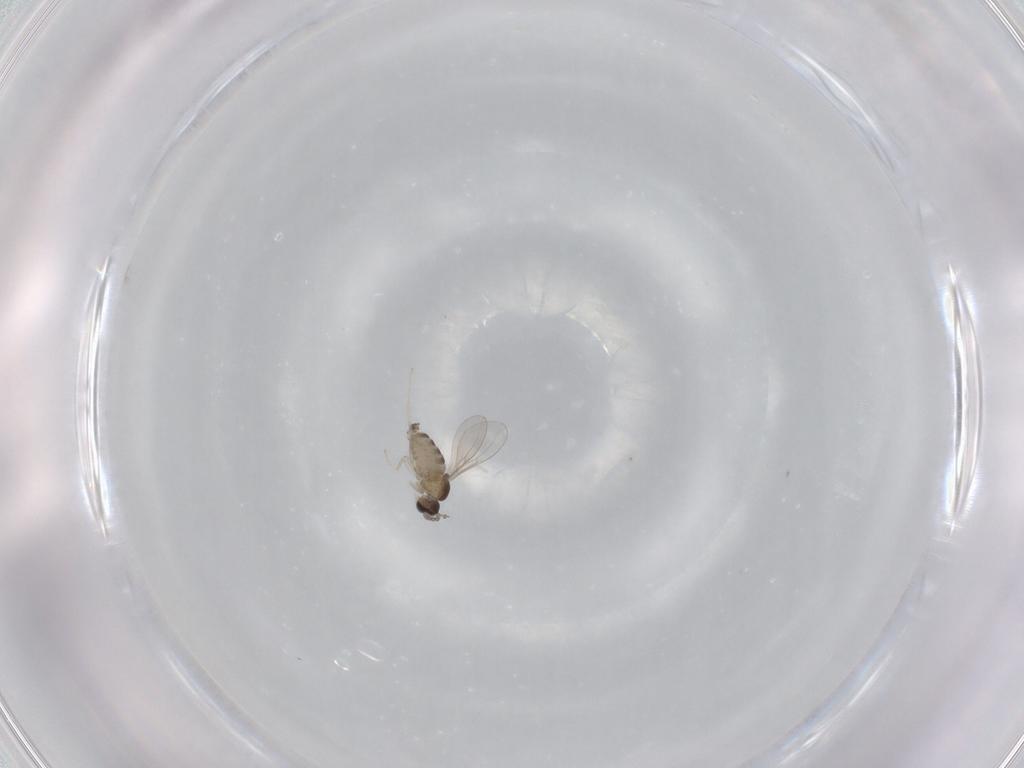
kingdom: Animalia
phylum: Arthropoda
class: Insecta
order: Diptera
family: Cecidomyiidae
